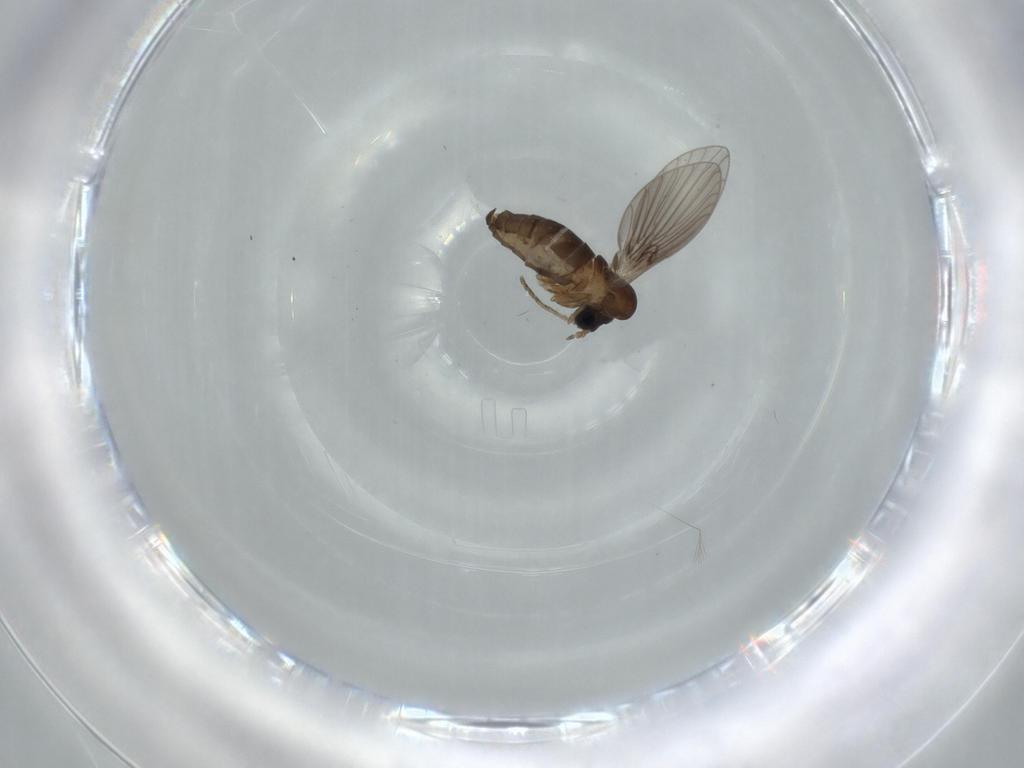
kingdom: Animalia
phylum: Arthropoda
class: Insecta
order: Diptera
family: Psychodidae
